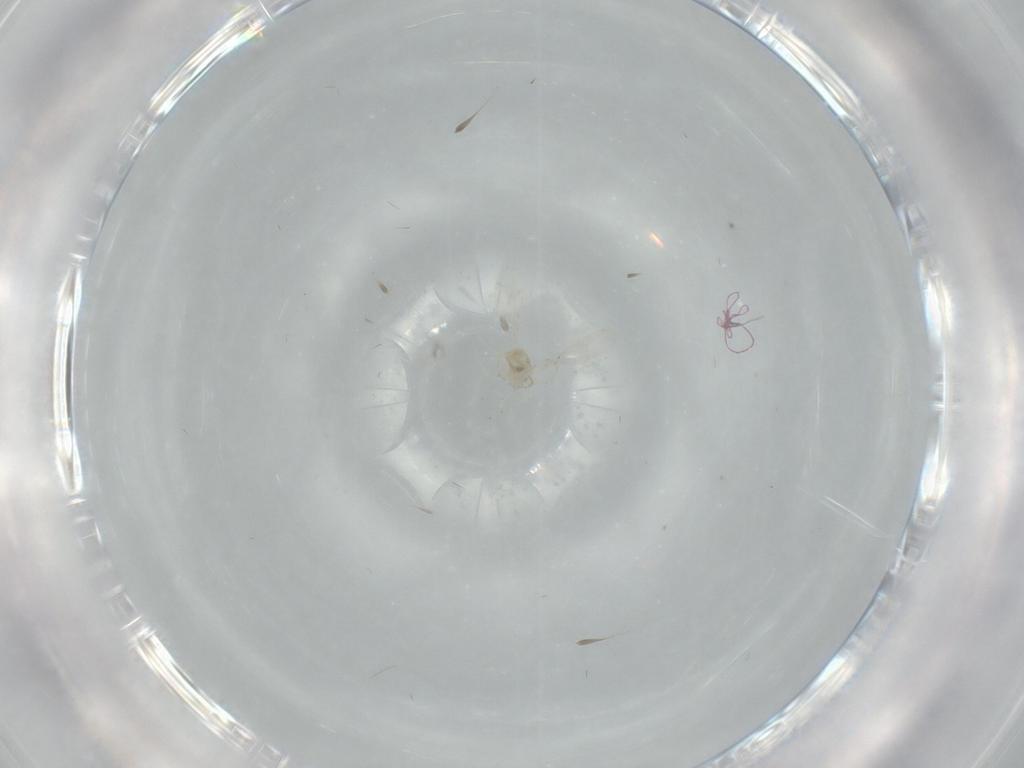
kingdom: Animalia
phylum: Arthropoda
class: Insecta
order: Diptera
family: Cecidomyiidae
